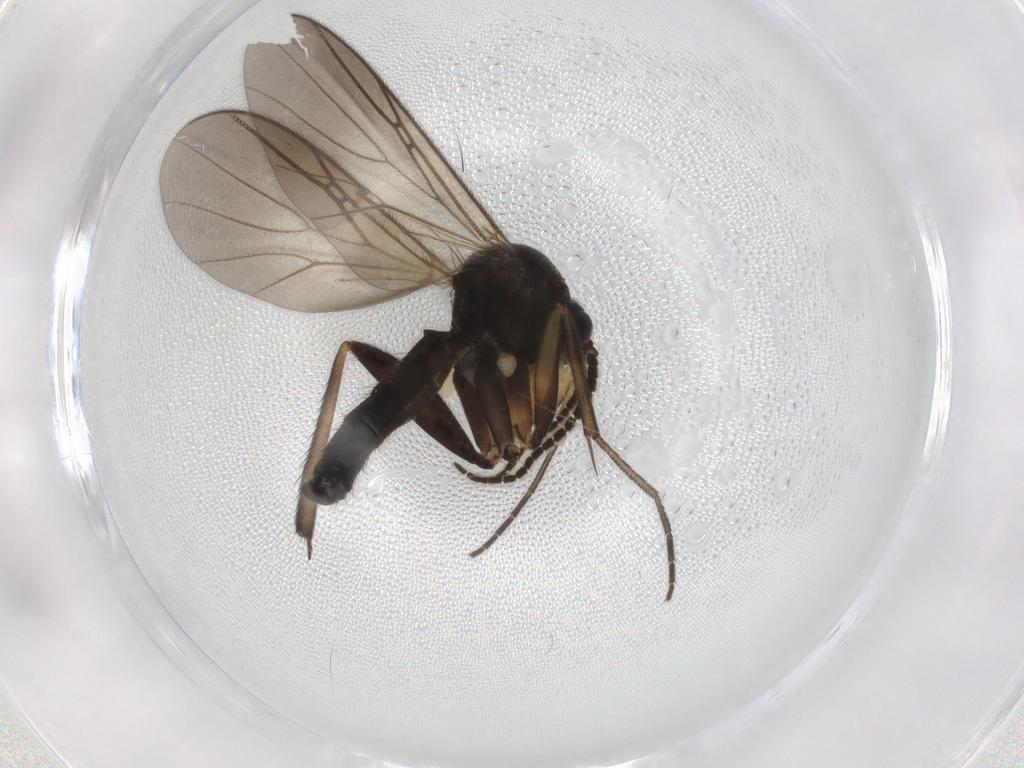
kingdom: Animalia
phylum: Arthropoda
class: Insecta
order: Diptera
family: Chironomidae
